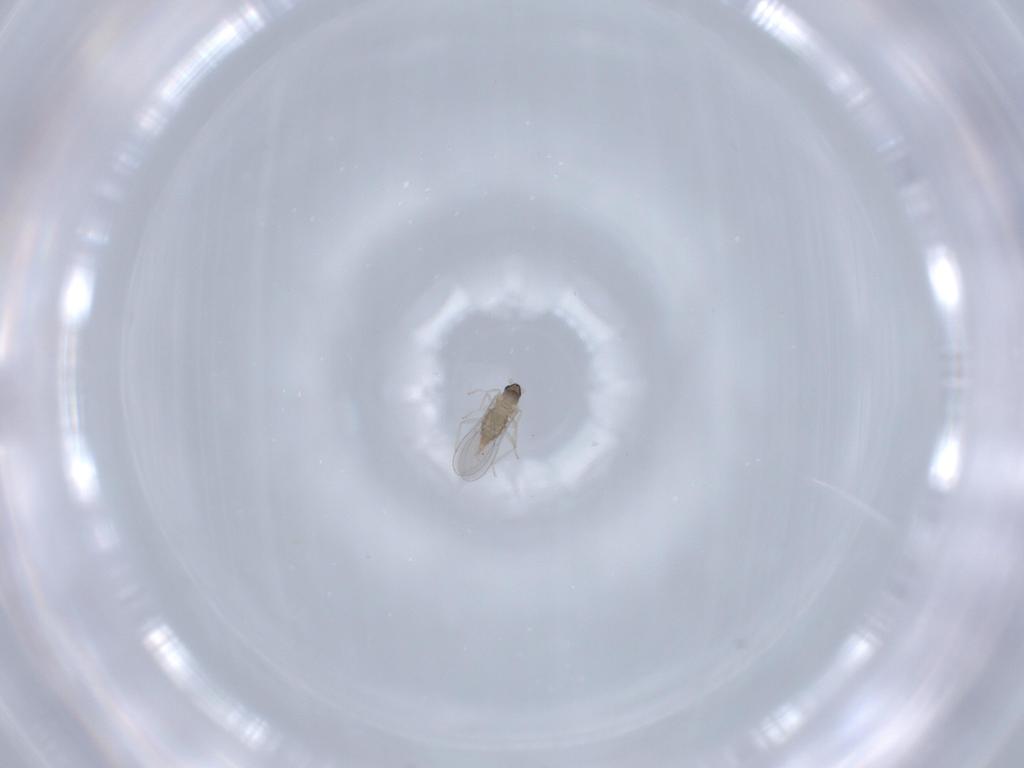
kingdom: Animalia
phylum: Arthropoda
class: Insecta
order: Diptera
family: Cecidomyiidae
